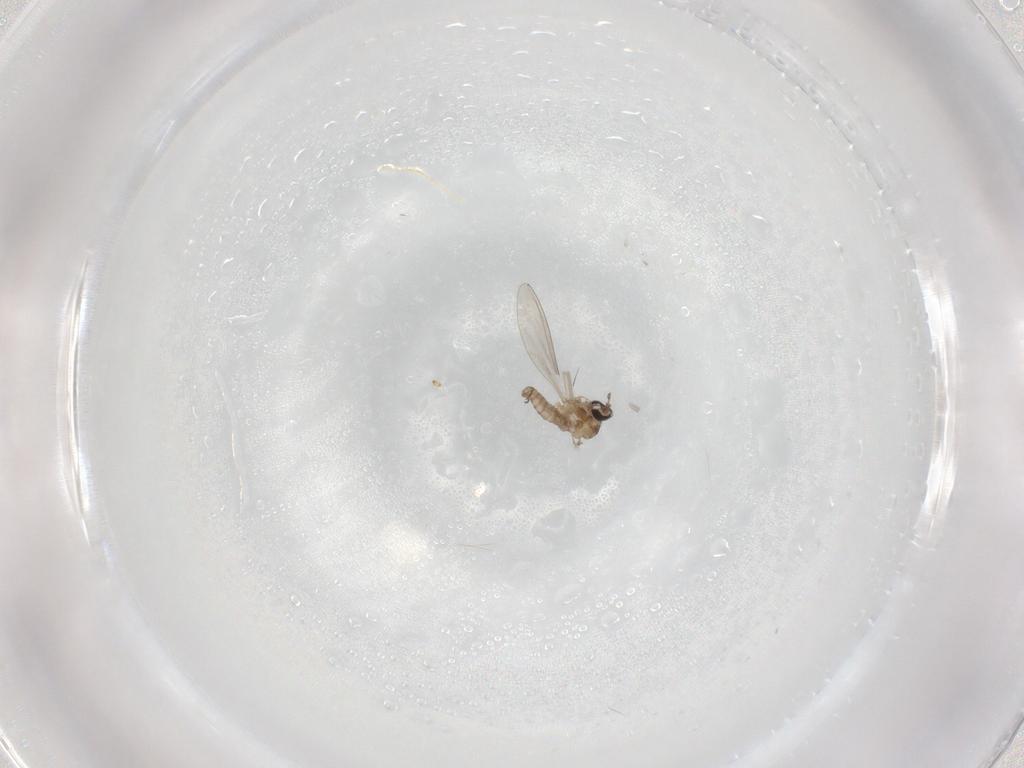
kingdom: Animalia
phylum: Arthropoda
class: Insecta
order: Diptera
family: Cecidomyiidae
